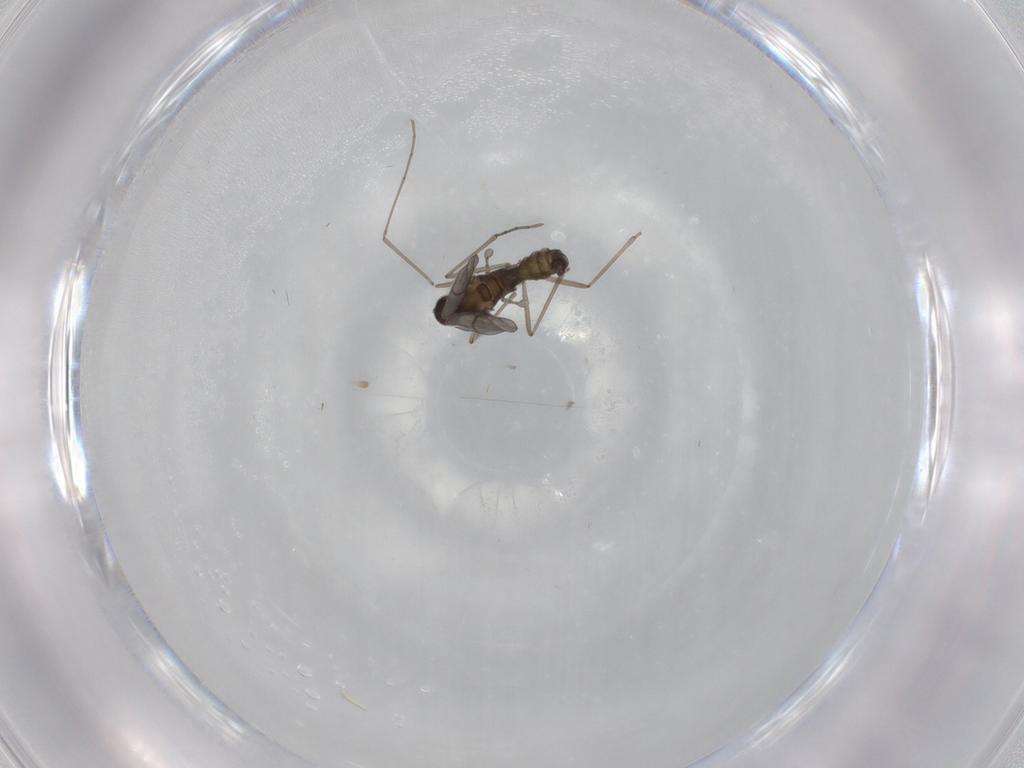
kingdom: Animalia
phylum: Arthropoda
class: Insecta
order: Diptera
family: Cecidomyiidae
